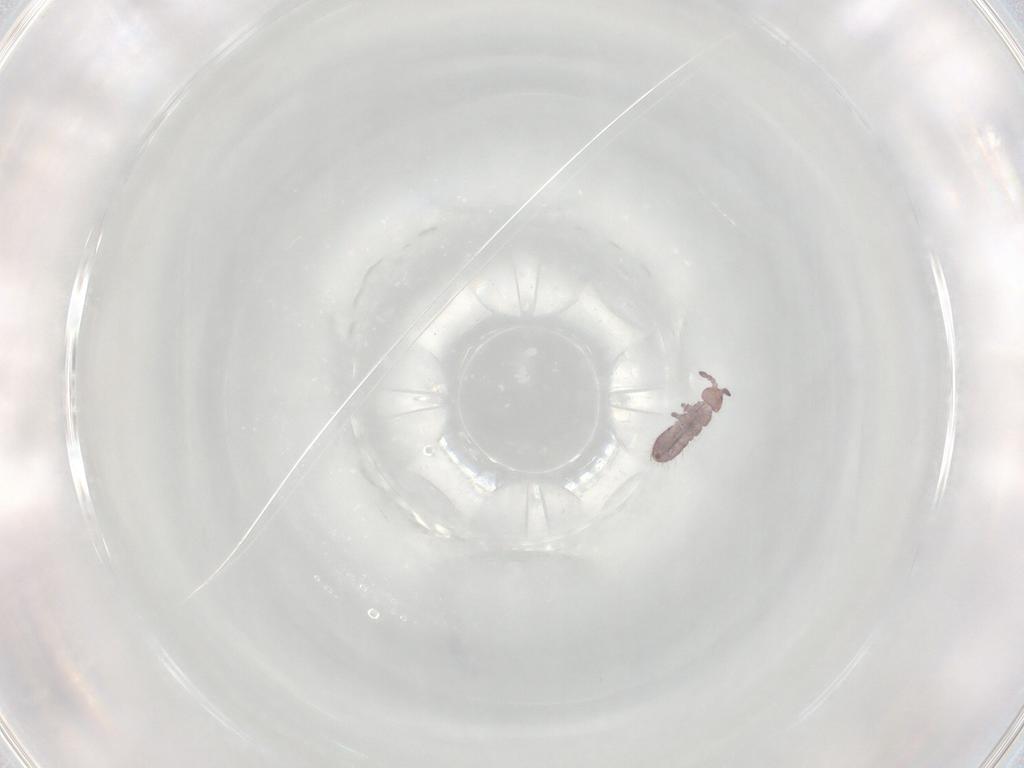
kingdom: Animalia
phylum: Arthropoda
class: Collembola
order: Entomobryomorpha
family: Isotomidae
